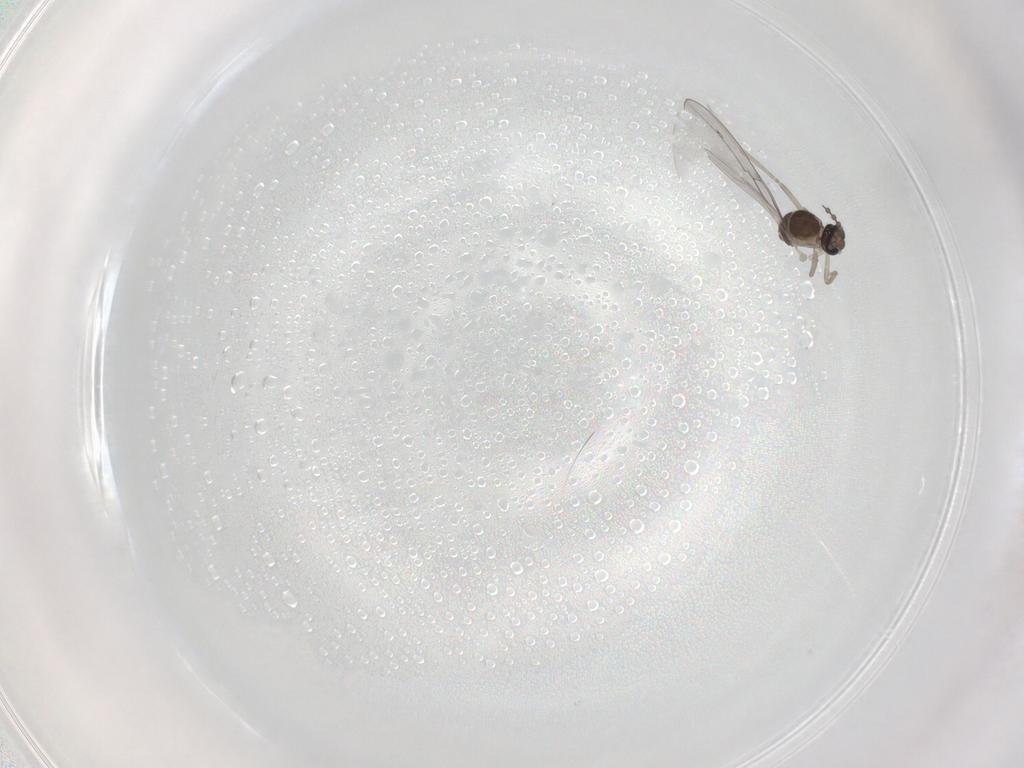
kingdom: Animalia
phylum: Arthropoda
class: Insecta
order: Diptera
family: Cecidomyiidae
